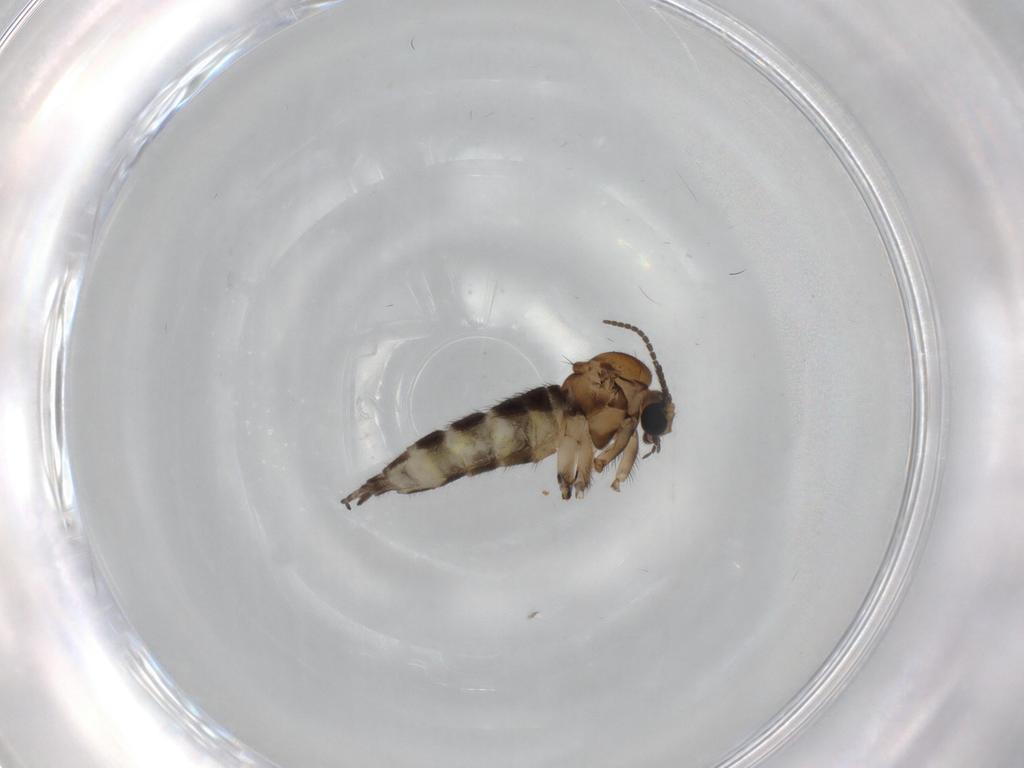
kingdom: Animalia
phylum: Arthropoda
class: Insecta
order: Diptera
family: Sciaridae
